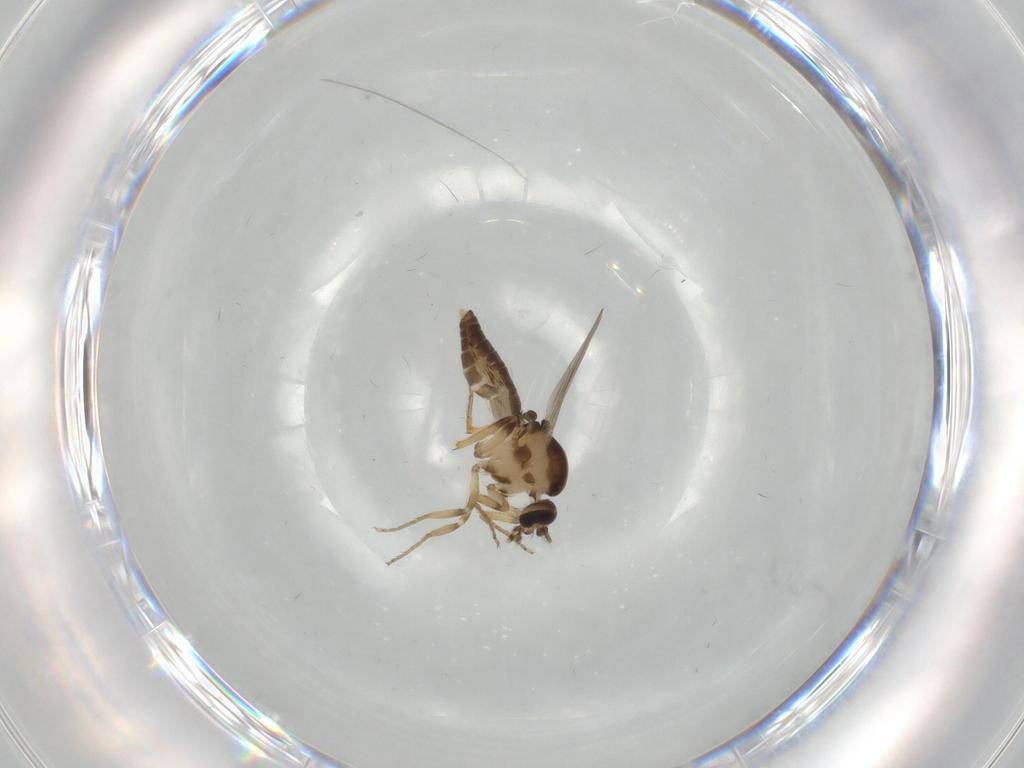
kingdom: Animalia
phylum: Arthropoda
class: Insecta
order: Diptera
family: Ceratopogonidae
